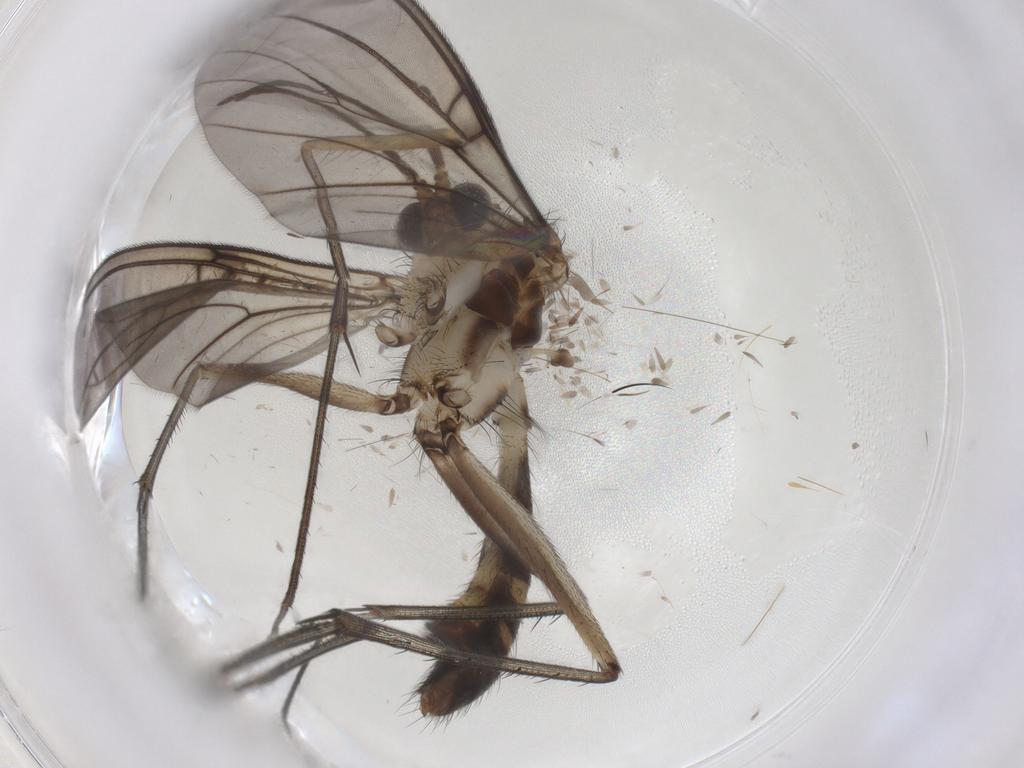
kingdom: Animalia
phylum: Arthropoda
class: Insecta
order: Diptera
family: Mycetophilidae
